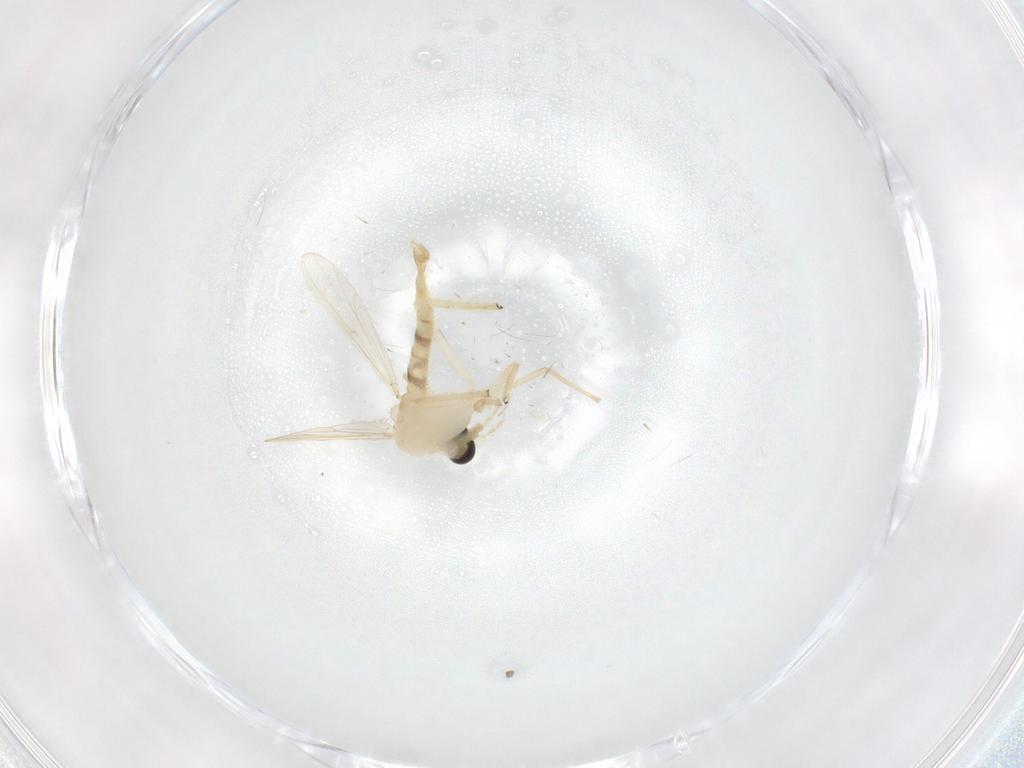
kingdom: Animalia
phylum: Arthropoda
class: Insecta
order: Diptera
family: Chironomidae
